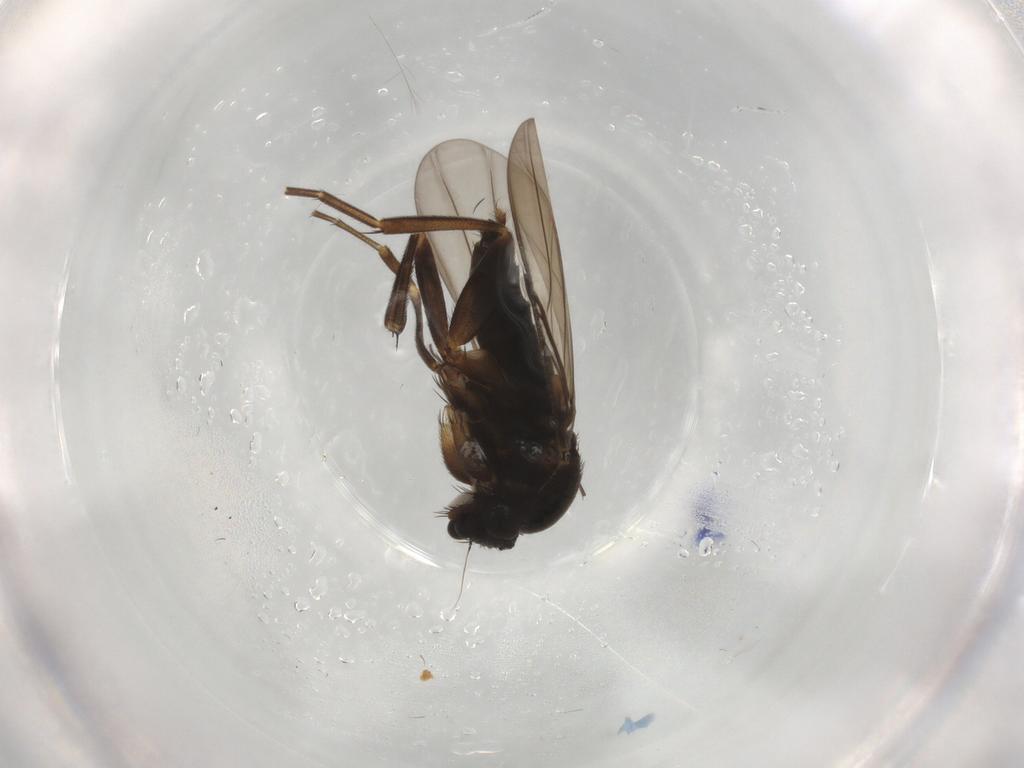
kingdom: Animalia
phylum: Arthropoda
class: Insecta
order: Diptera
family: Phoridae
